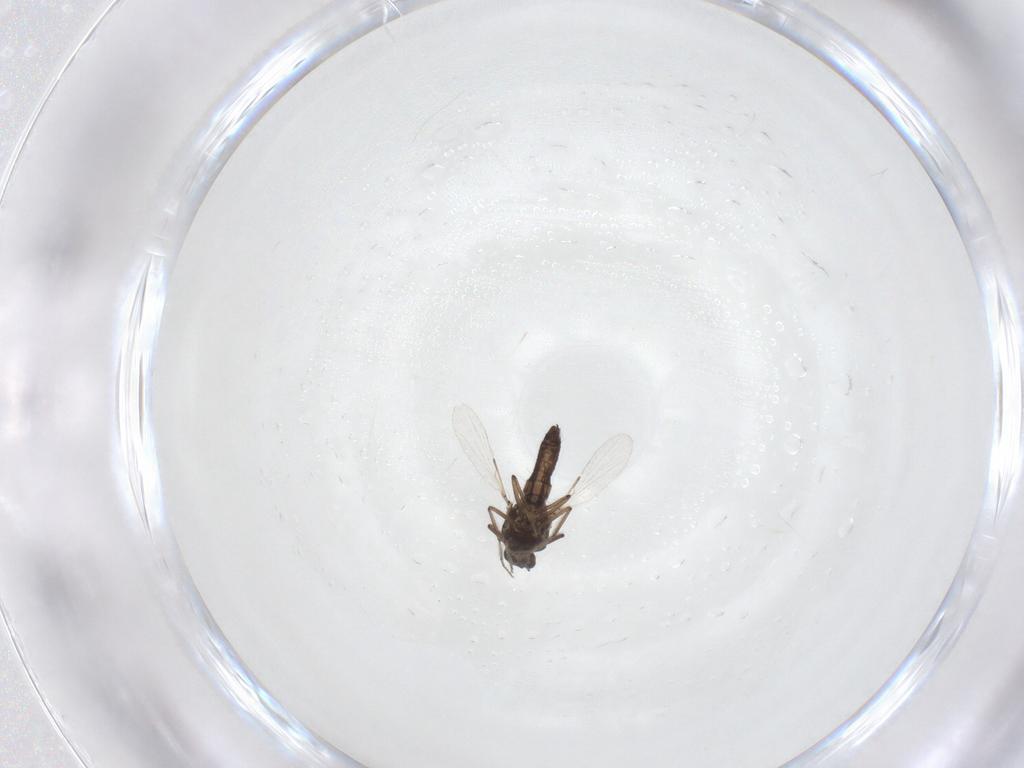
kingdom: Animalia
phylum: Arthropoda
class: Insecta
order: Diptera
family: Ceratopogonidae
